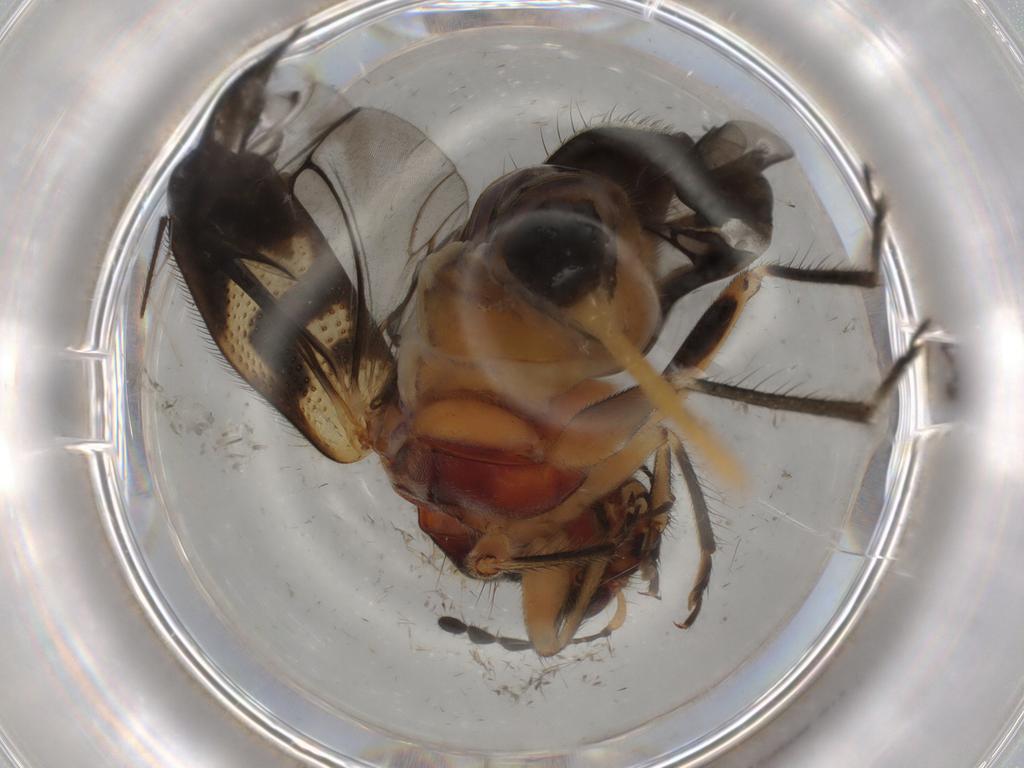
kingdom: Animalia
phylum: Arthropoda
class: Insecta
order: Coleoptera
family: Cleridae
